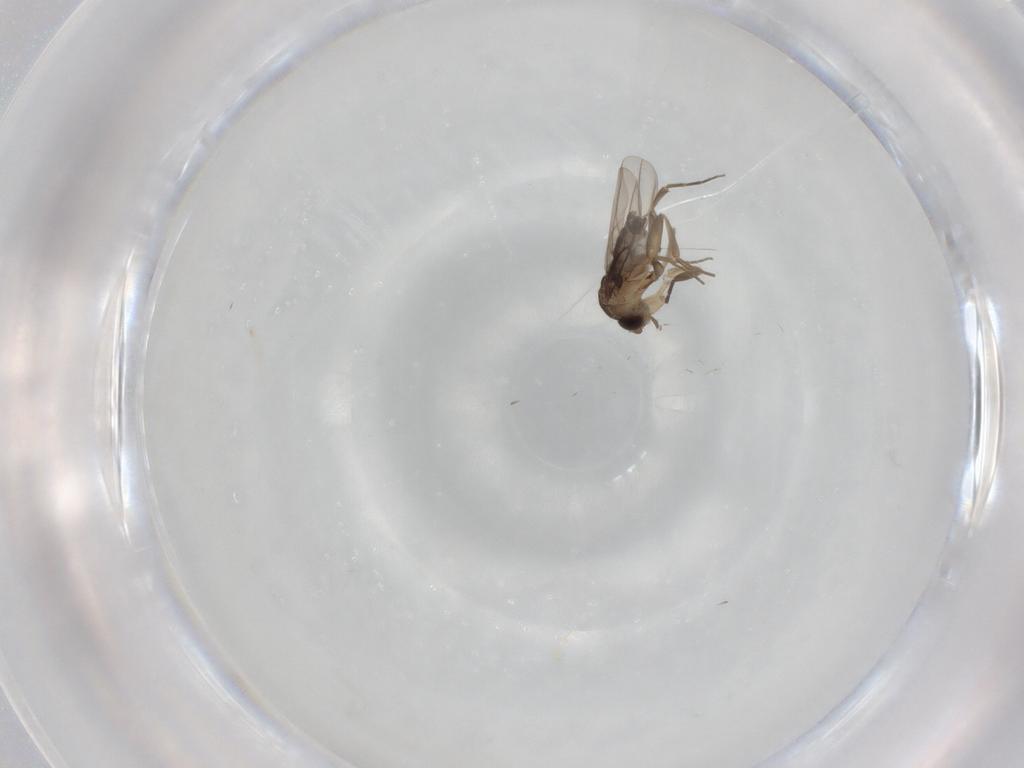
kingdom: Animalia
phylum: Arthropoda
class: Insecta
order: Diptera
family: Phoridae
